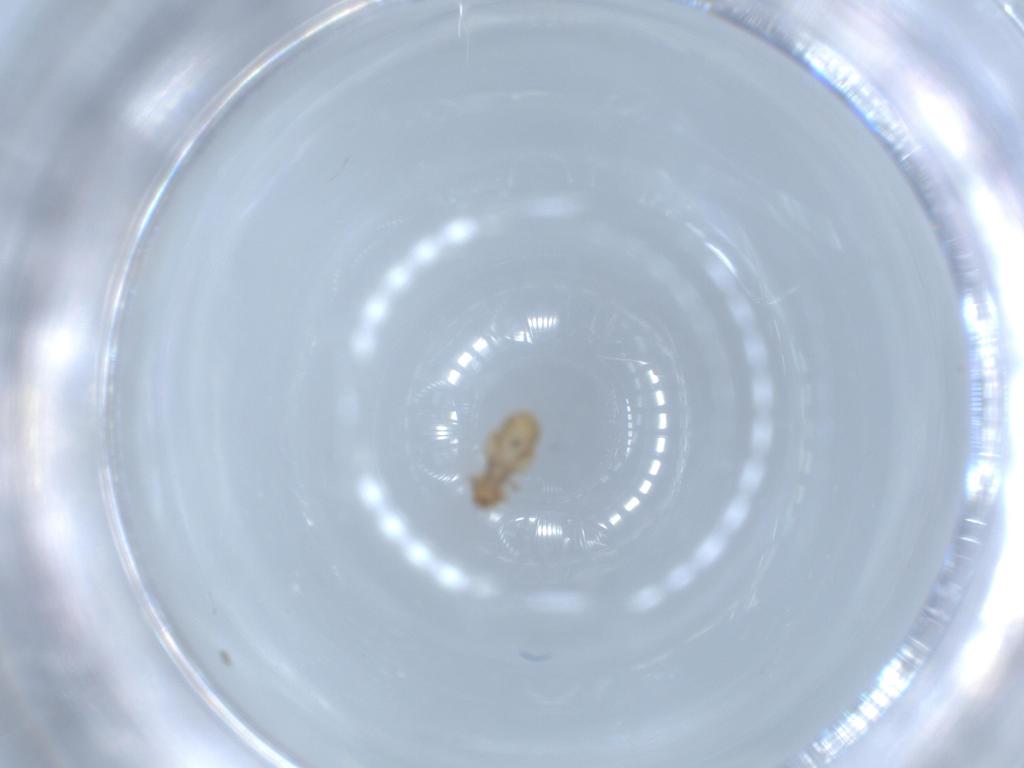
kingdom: Animalia
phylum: Arthropoda
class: Insecta
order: Psocodea
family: Liposcelididae
